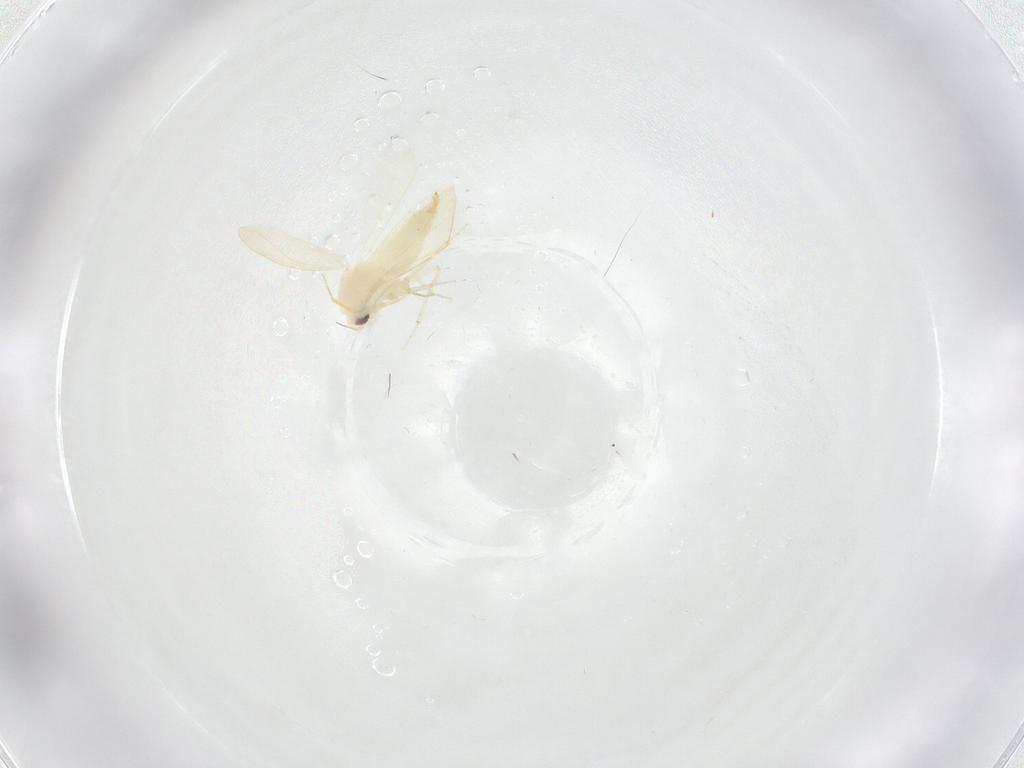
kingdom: Animalia
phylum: Arthropoda
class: Insecta
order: Hemiptera
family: Aleyrodidae
